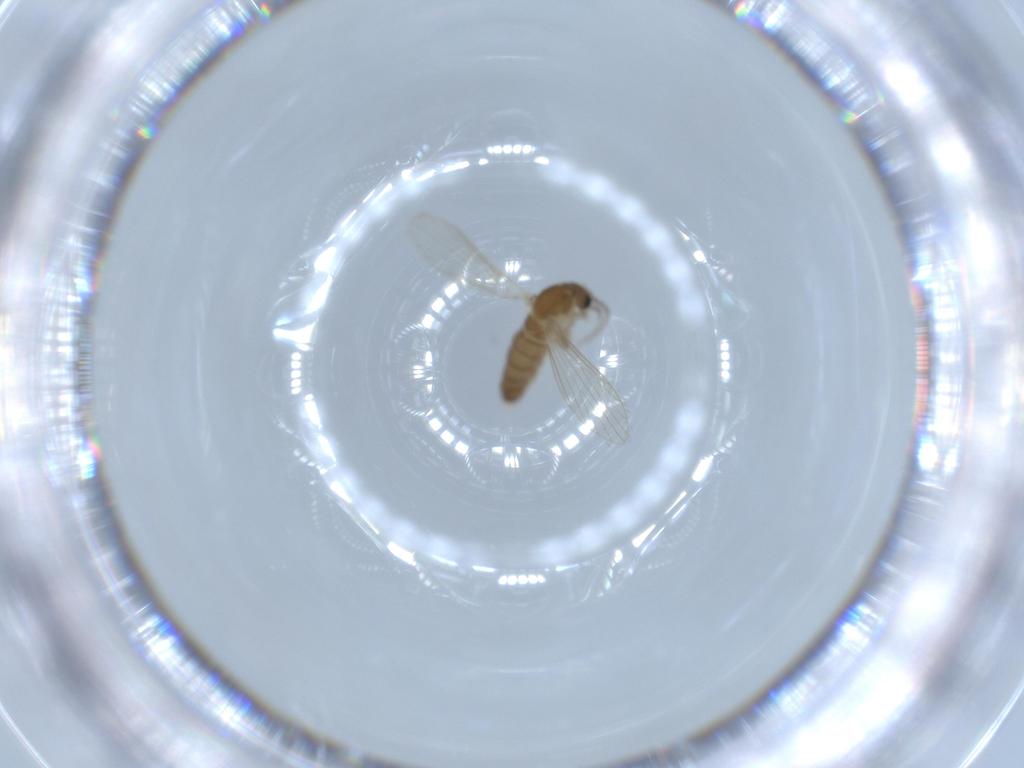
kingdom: Animalia
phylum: Arthropoda
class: Insecta
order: Diptera
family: Psychodidae
